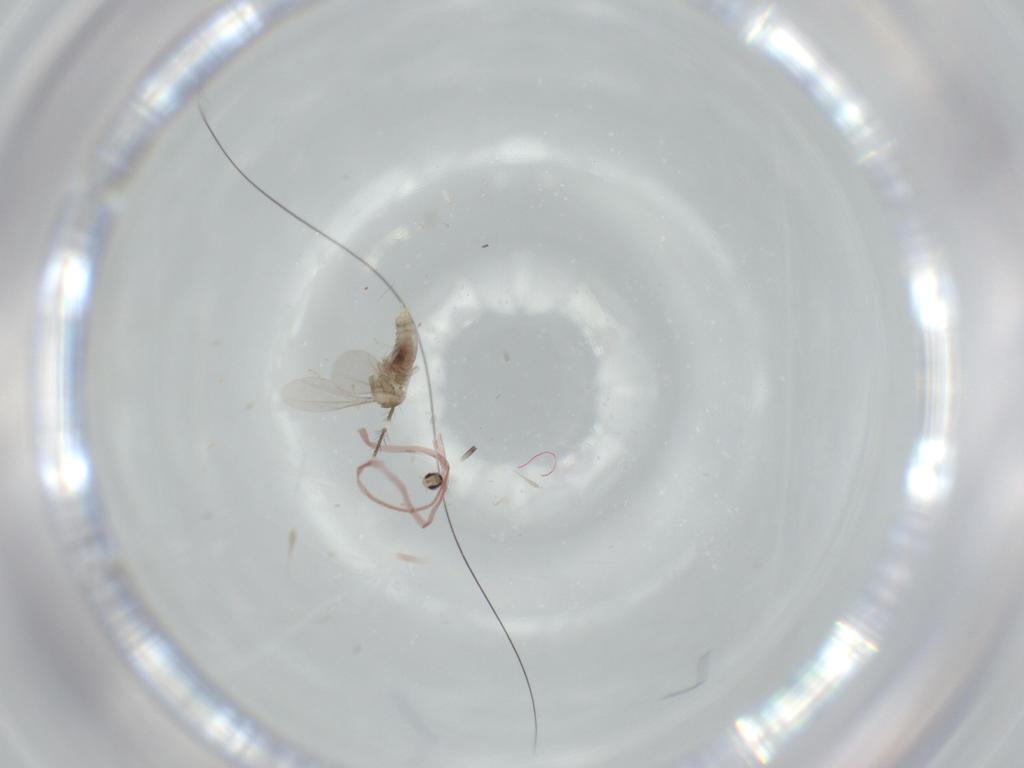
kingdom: Animalia
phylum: Arthropoda
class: Insecta
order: Diptera
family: Tabanidae
